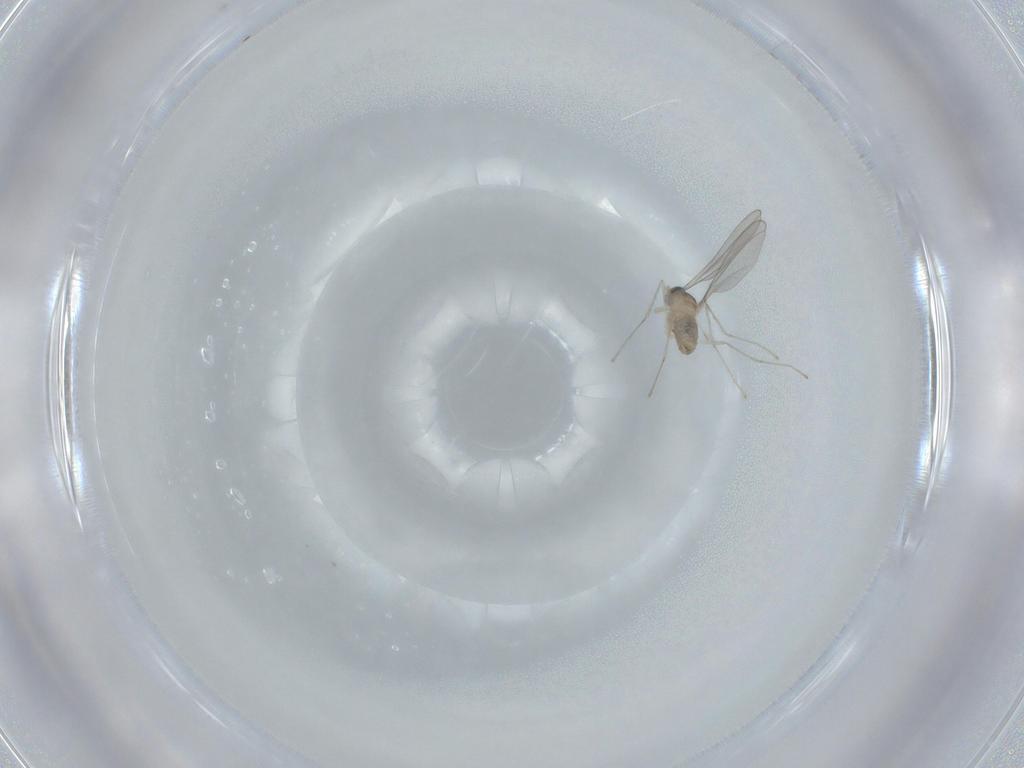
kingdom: Animalia
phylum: Arthropoda
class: Insecta
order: Diptera
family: Cecidomyiidae
